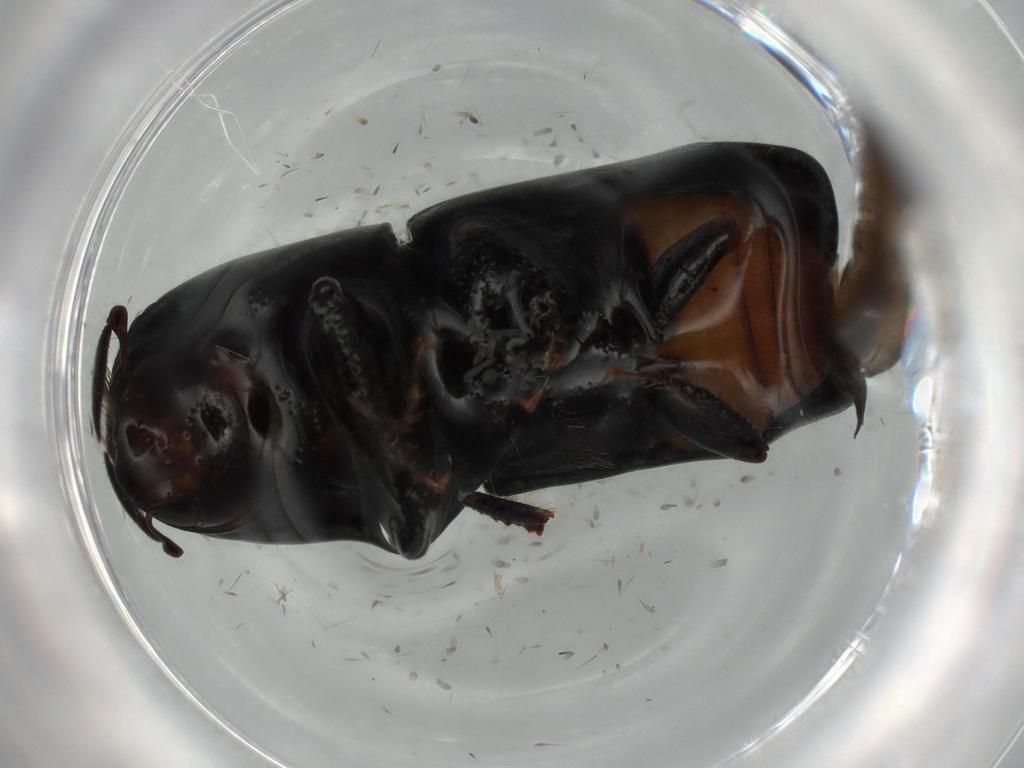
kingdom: Animalia
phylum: Arthropoda
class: Insecta
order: Coleoptera
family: Curculionidae
